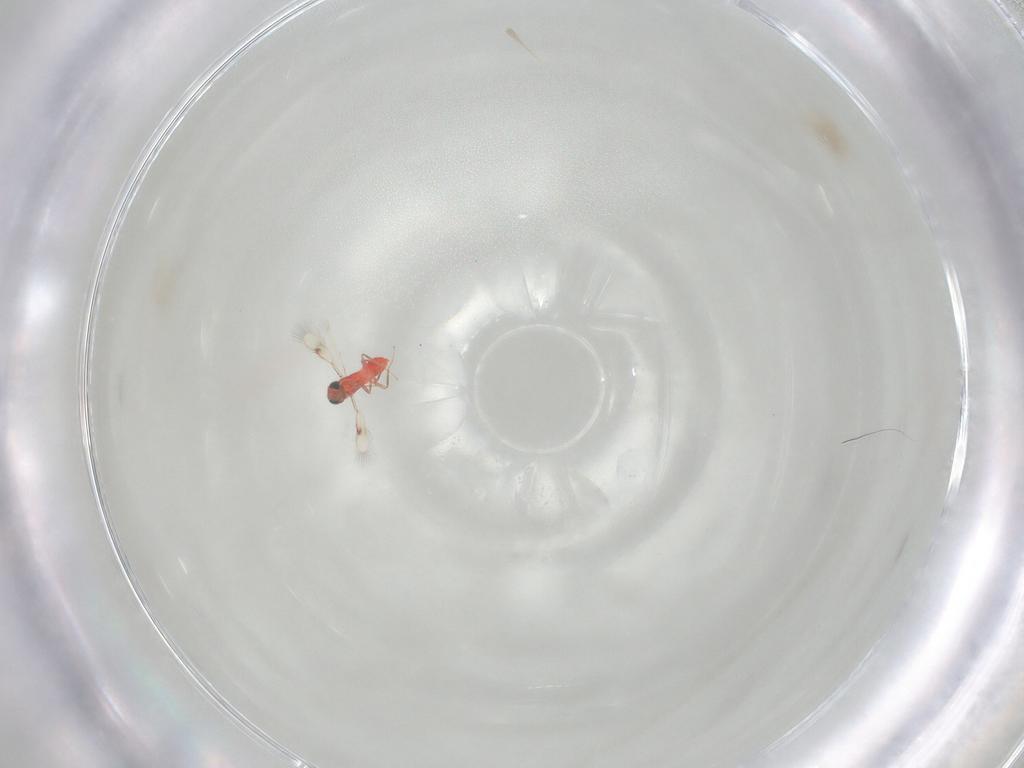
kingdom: Animalia
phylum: Arthropoda
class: Insecta
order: Hymenoptera
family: Trichogrammatidae
